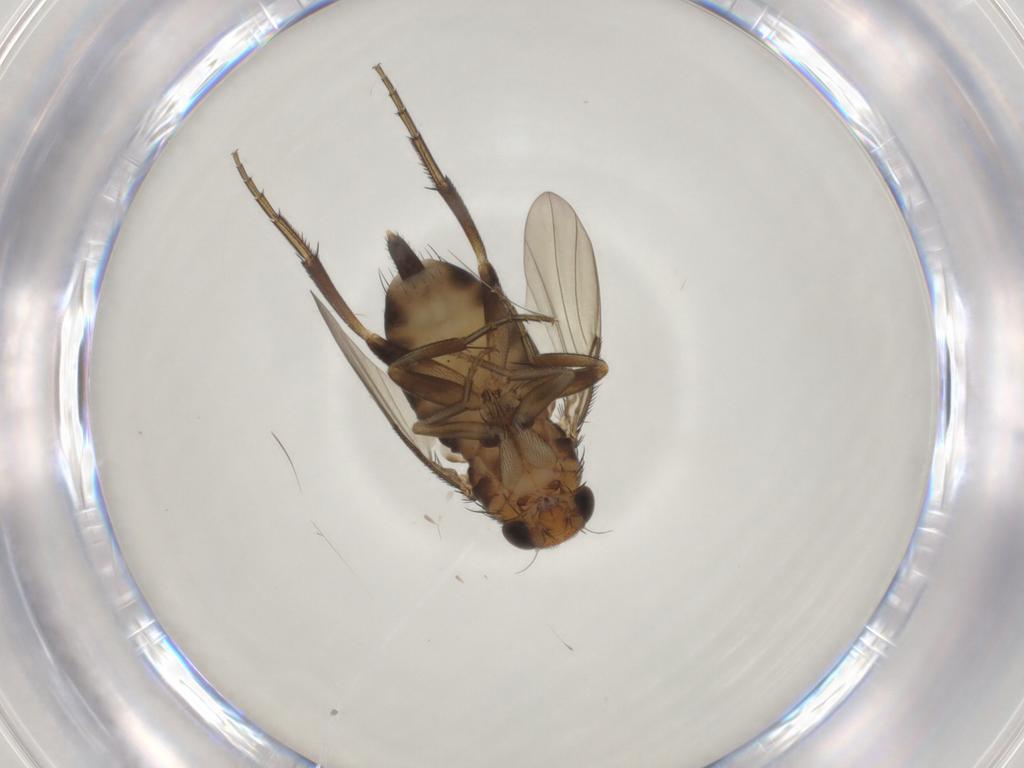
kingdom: Animalia
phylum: Arthropoda
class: Insecta
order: Diptera
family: Phoridae
